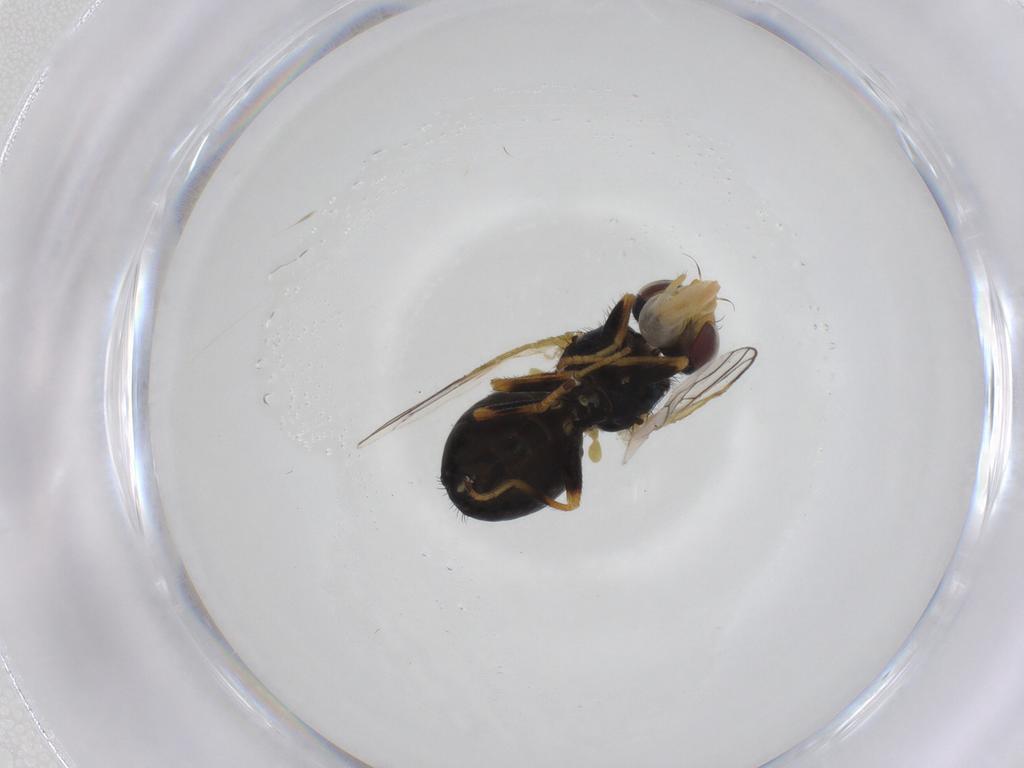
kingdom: Animalia
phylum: Arthropoda
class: Insecta
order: Diptera
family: Tephritidae
